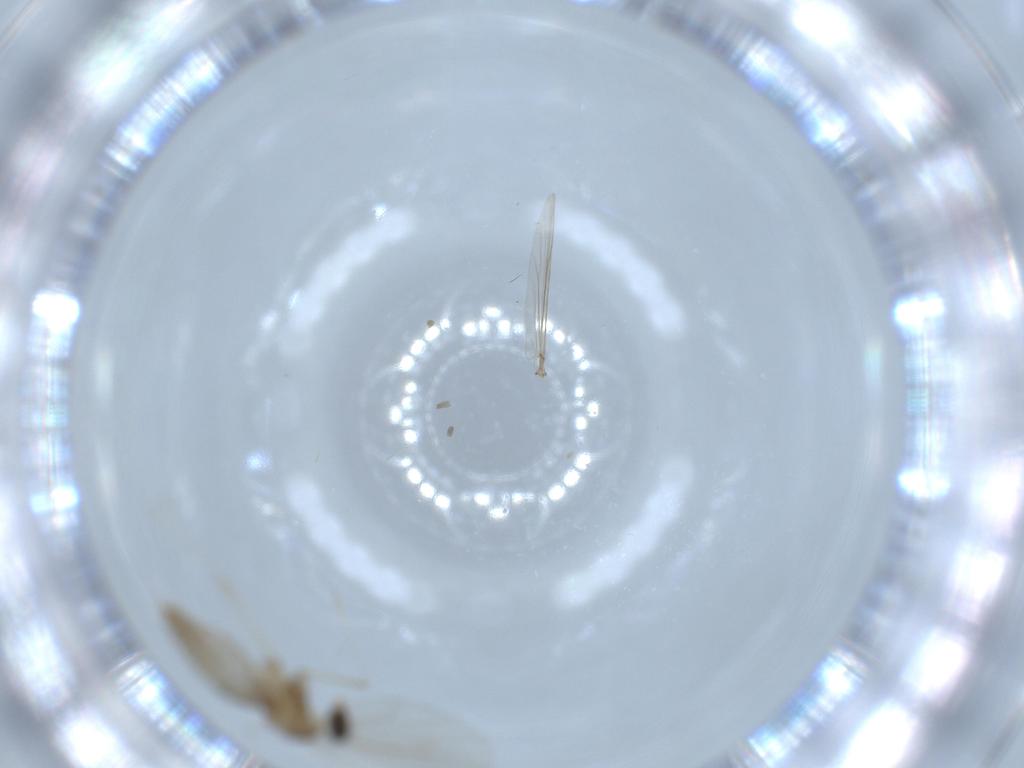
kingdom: Animalia
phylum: Arthropoda
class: Insecta
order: Diptera
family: Cecidomyiidae
